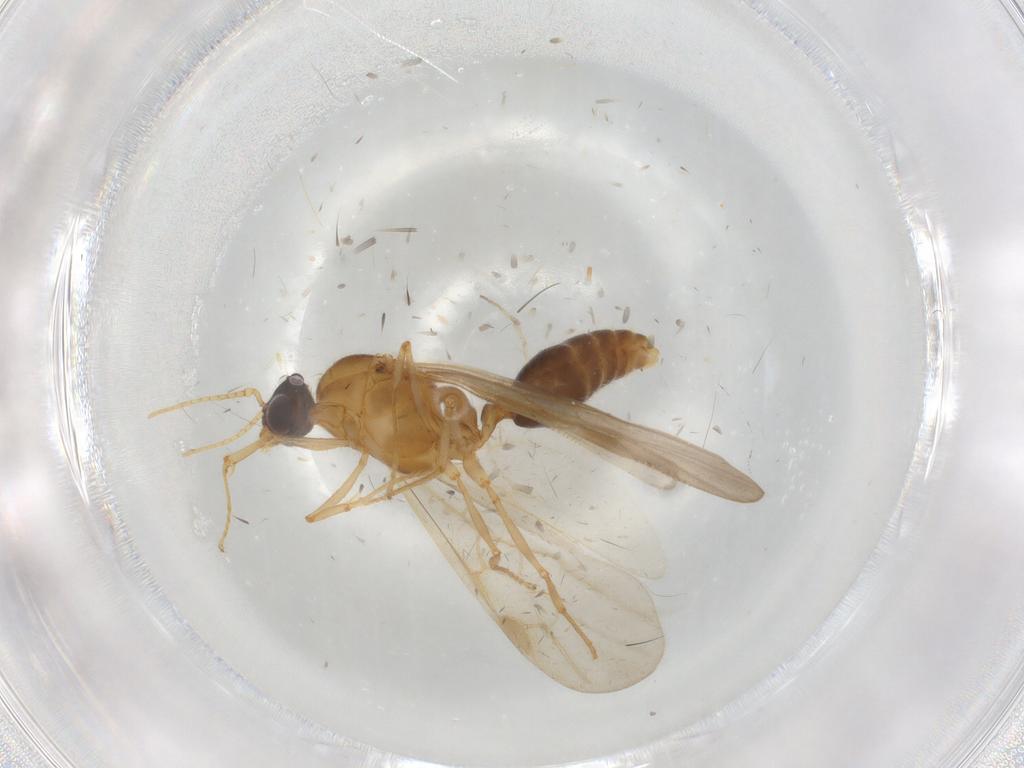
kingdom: Animalia
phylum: Arthropoda
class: Insecta
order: Hymenoptera
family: Formicidae
